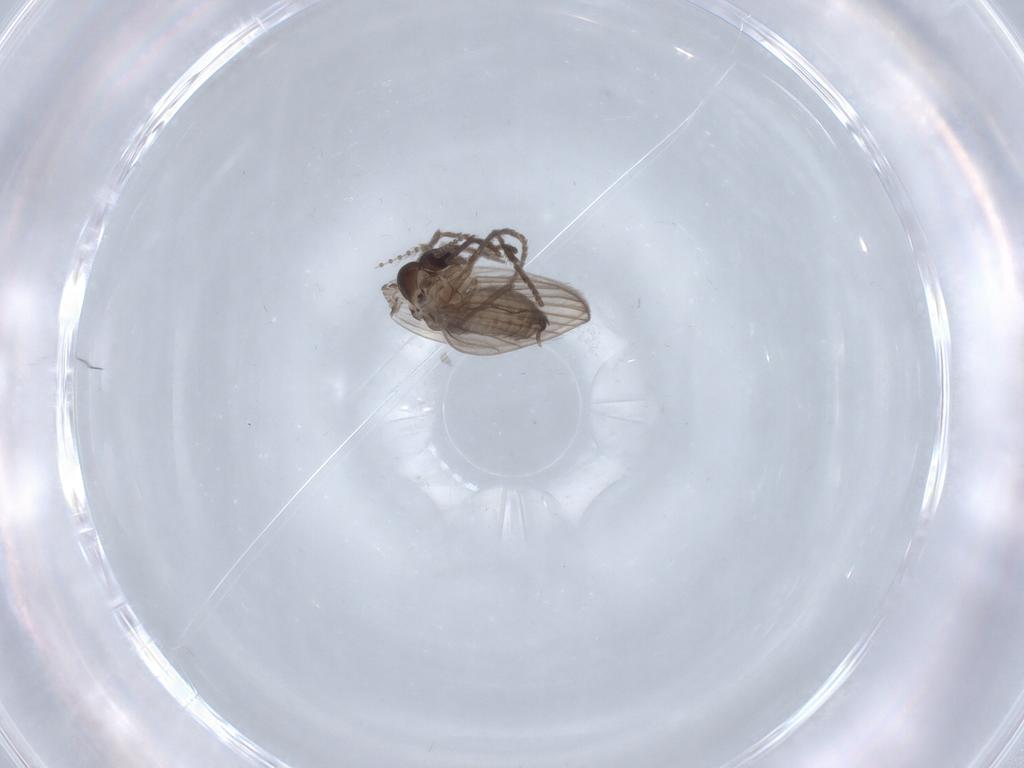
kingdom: Animalia
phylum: Arthropoda
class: Insecta
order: Diptera
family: Psychodidae
